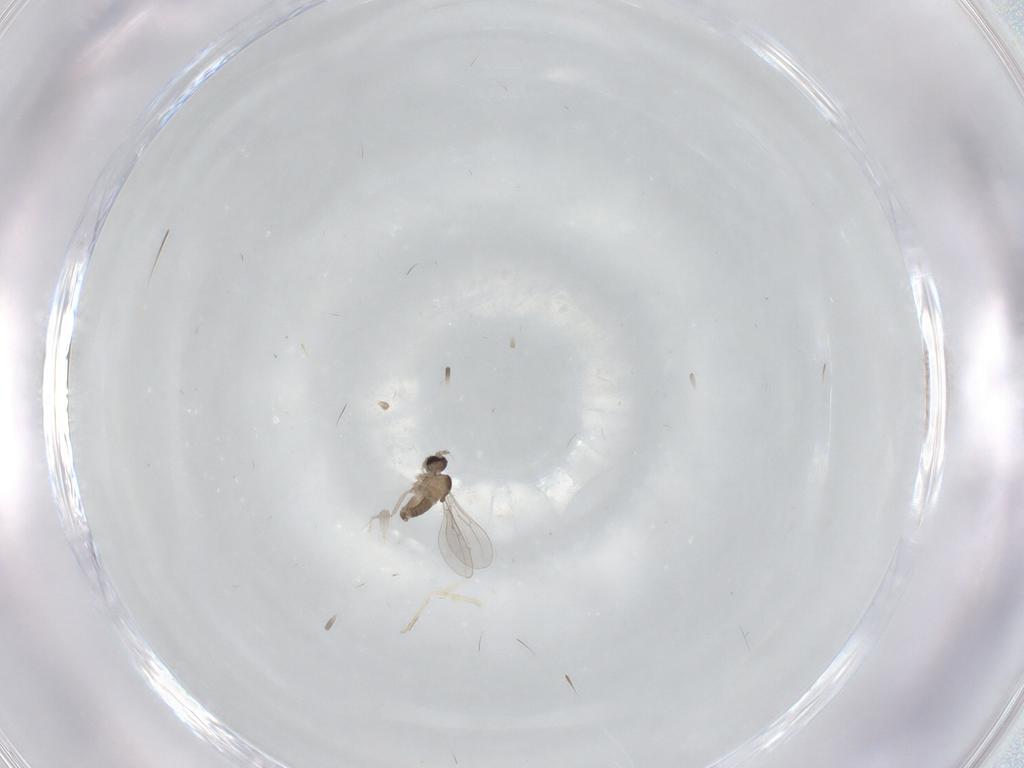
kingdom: Animalia
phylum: Arthropoda
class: Insecta
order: Diptera
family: Cecidomyiidae
